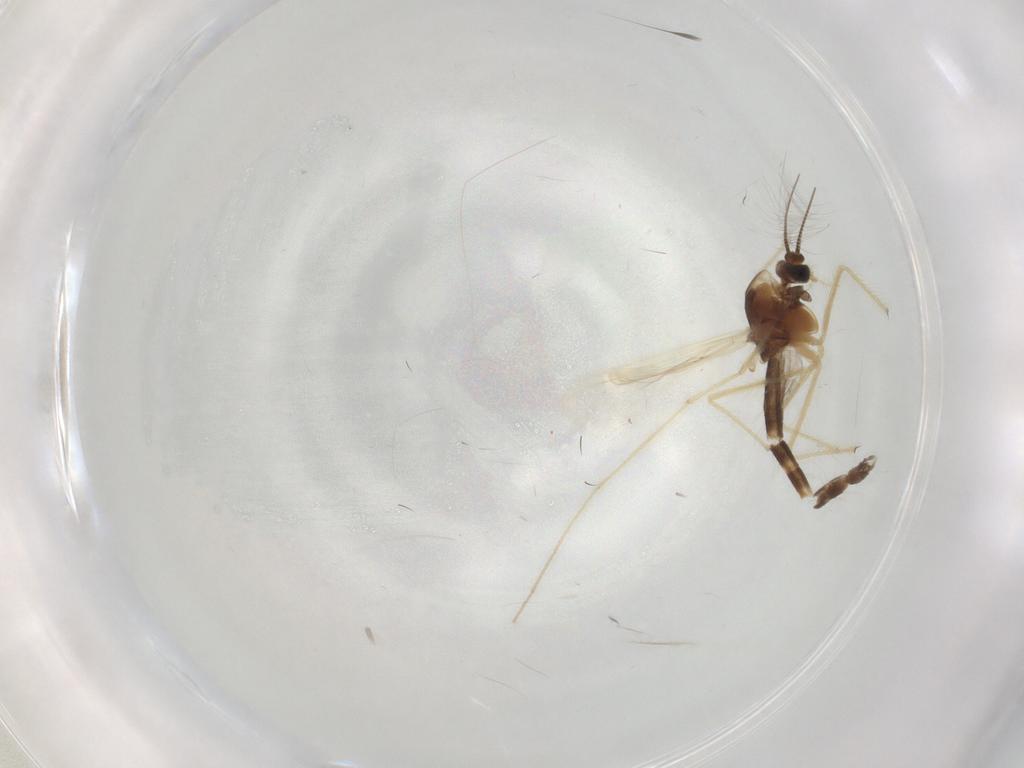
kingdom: Animalia
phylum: Arthropoda
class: Insecta
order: Diptera
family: Chironomidae
